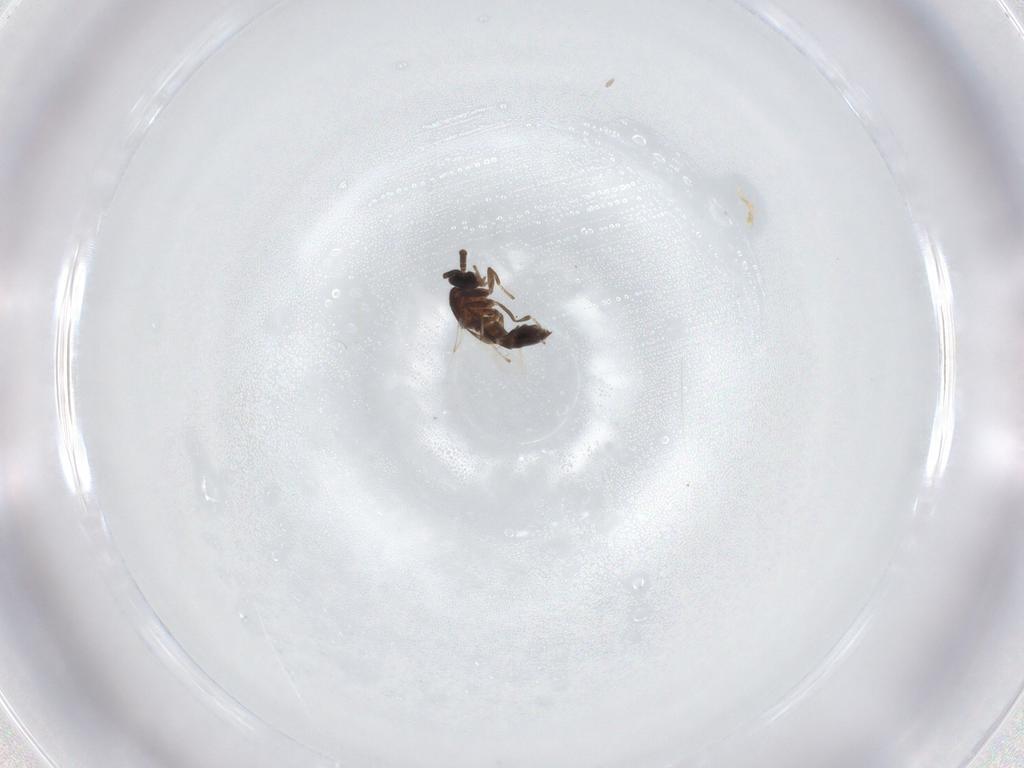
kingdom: Animalia
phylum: Arthropoda
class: Insecta
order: Diptera
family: Scatopsidae
